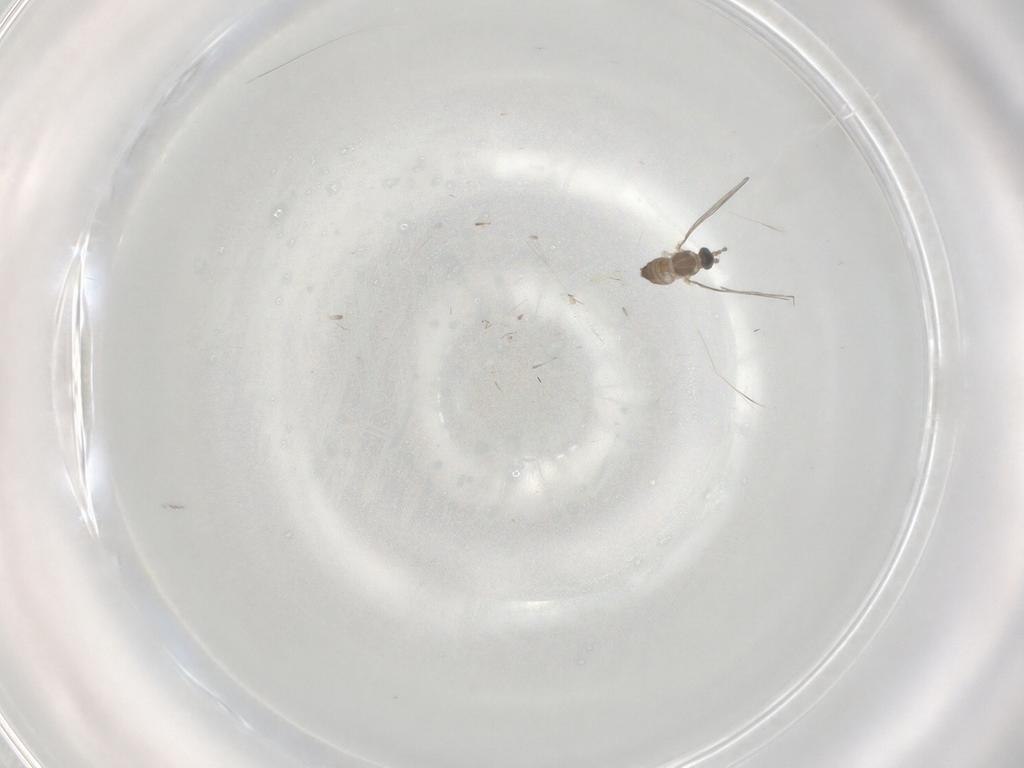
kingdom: Animalia
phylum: Arthropoda
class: Insecta
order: Diptera
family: Cecidomyiidae
